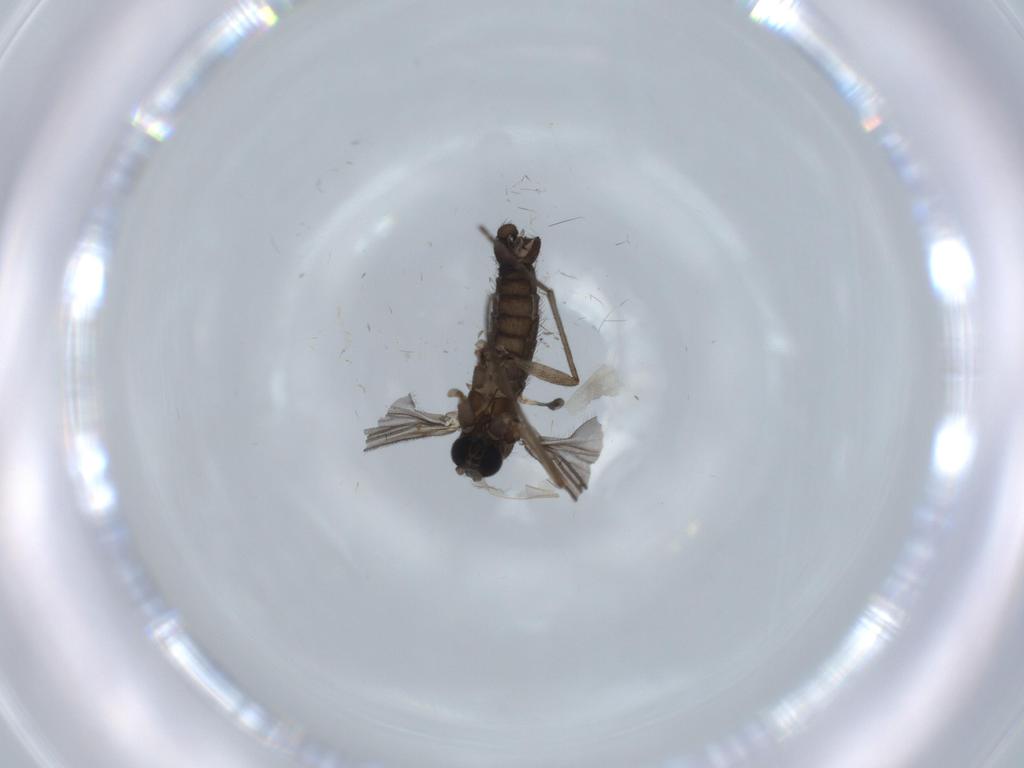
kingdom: Animalia
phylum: Arthropoda
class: Insecta
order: Diptera
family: Sciaridae
